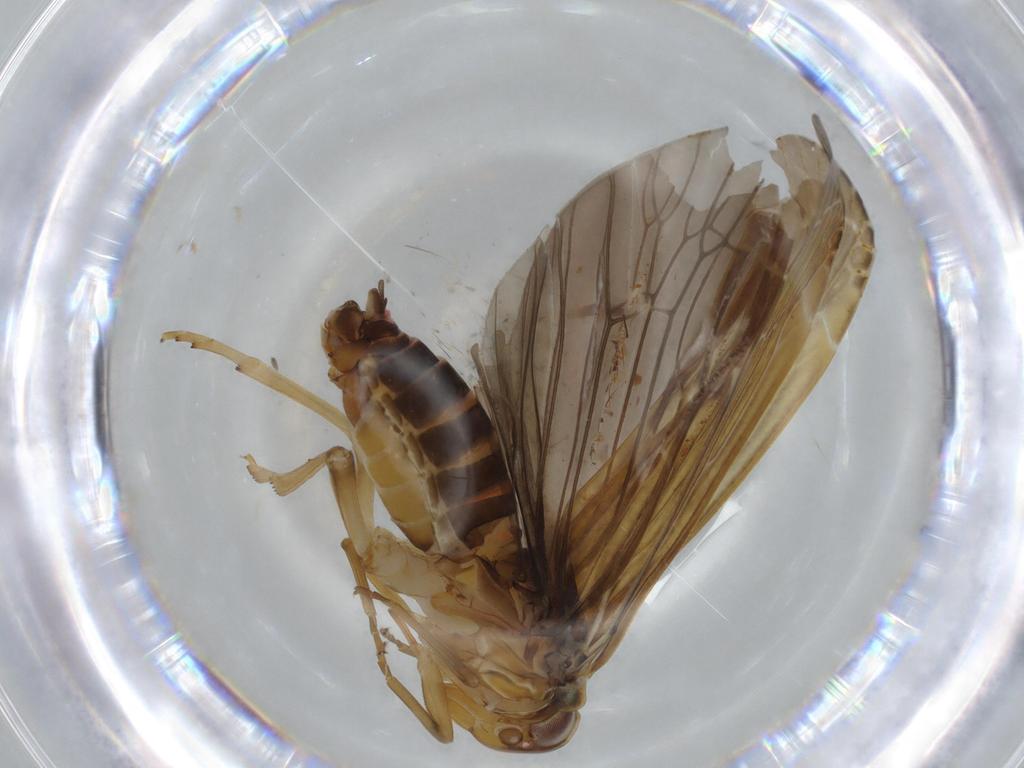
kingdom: Animalia
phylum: Arthropoda
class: Insecta
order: Hemiptera
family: Achilidae
